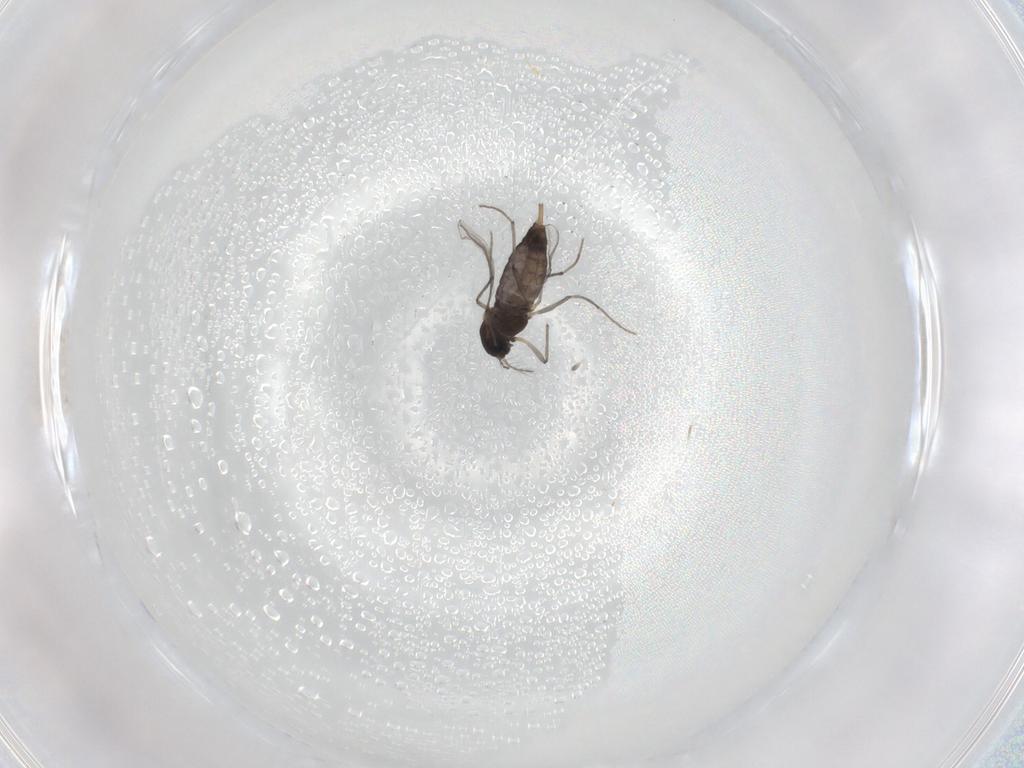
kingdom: Animalia
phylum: Arthropoda
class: Insecta
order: Diptera
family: Chironomidae
